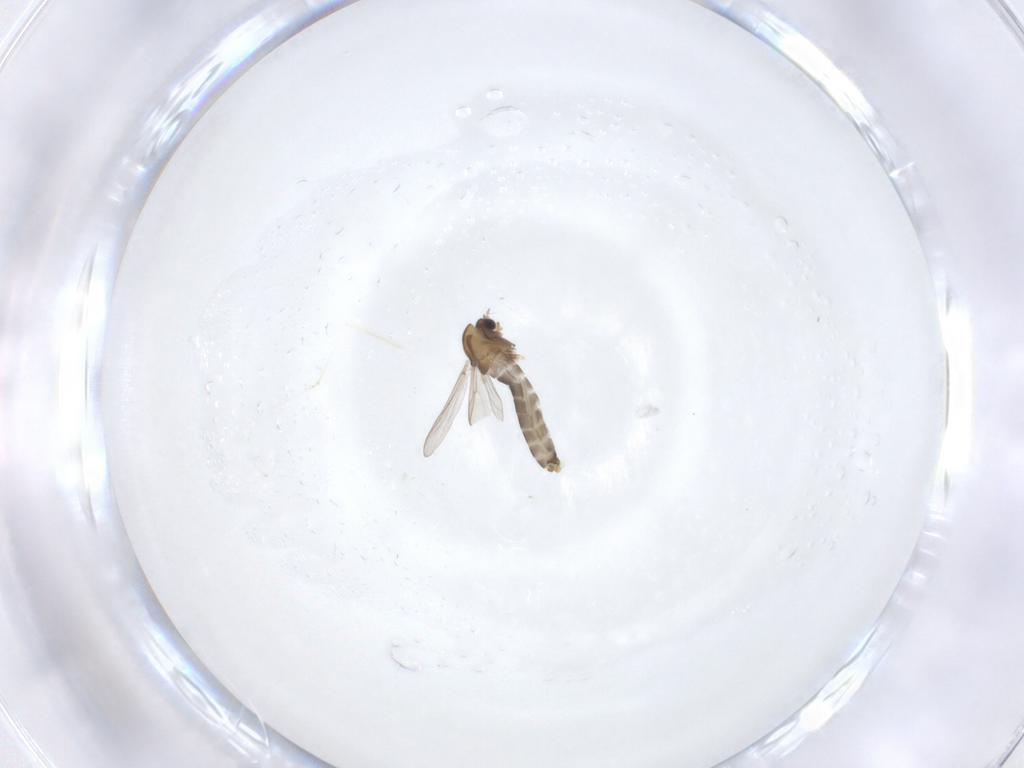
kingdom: Animalia
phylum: Arthropoda
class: Insecta
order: Diptera
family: Chironomidae
